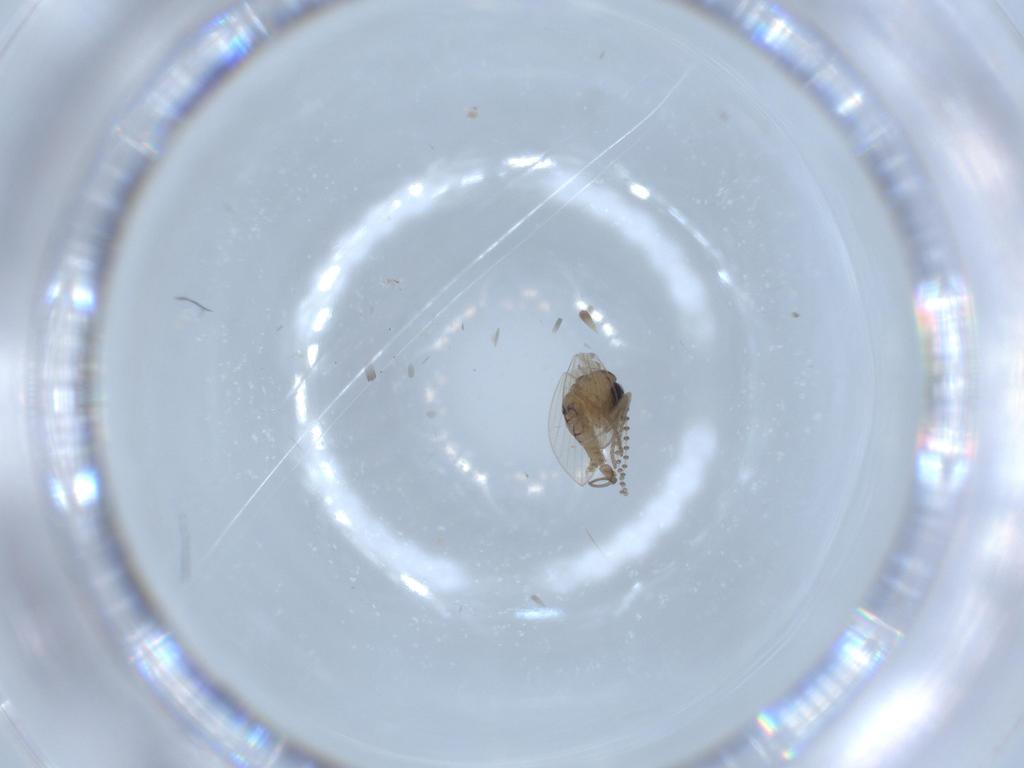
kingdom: Animalia
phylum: Arthropoda
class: Insecta
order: Diptera
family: Psychodidae
